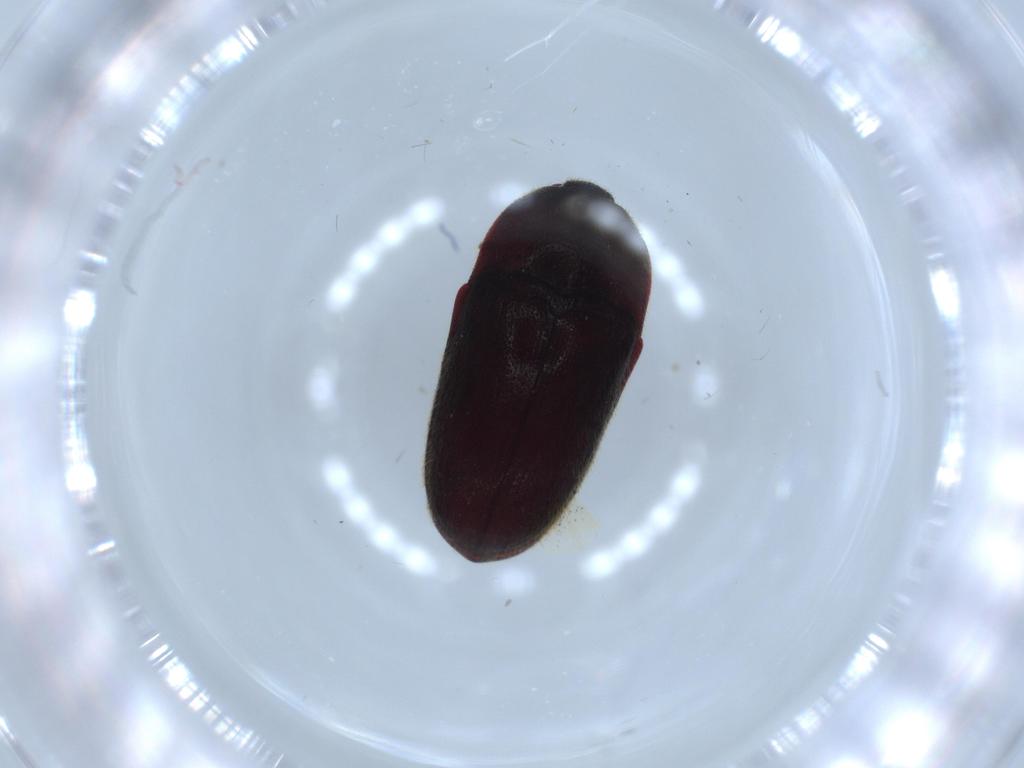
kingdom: Animalia
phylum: Arthropoda
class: Insecta
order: Coleoptera
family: Throscidae
